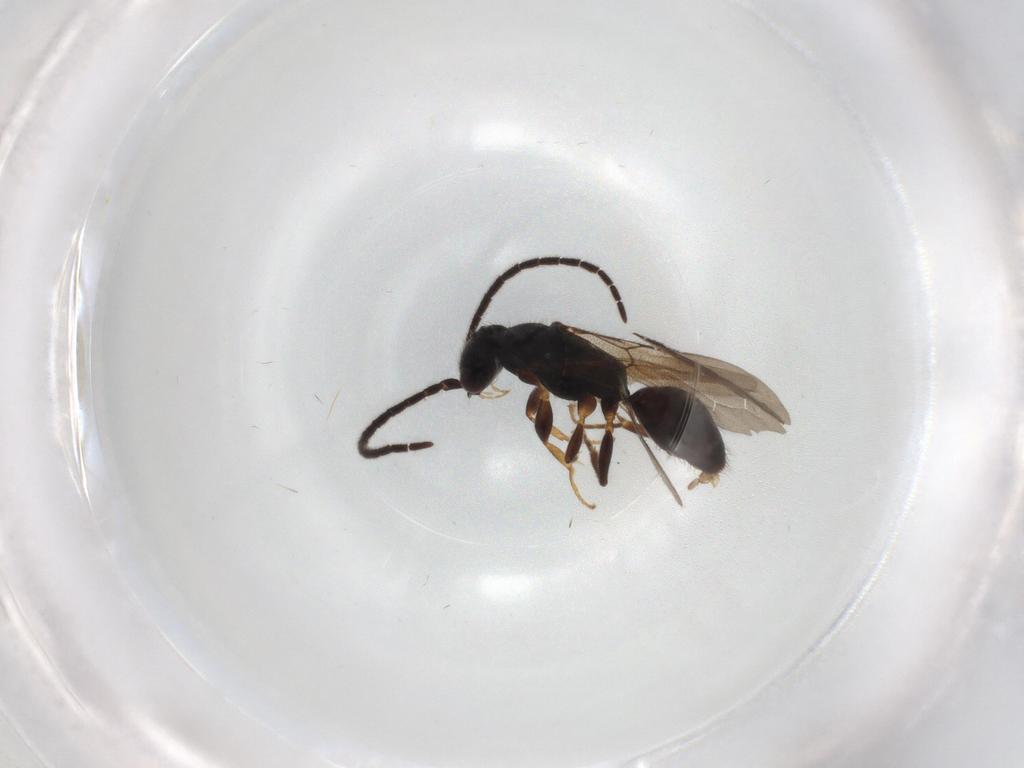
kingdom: Animalia
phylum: Arthropoda
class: Insecta
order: Hymenoptera
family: Bethylidae
